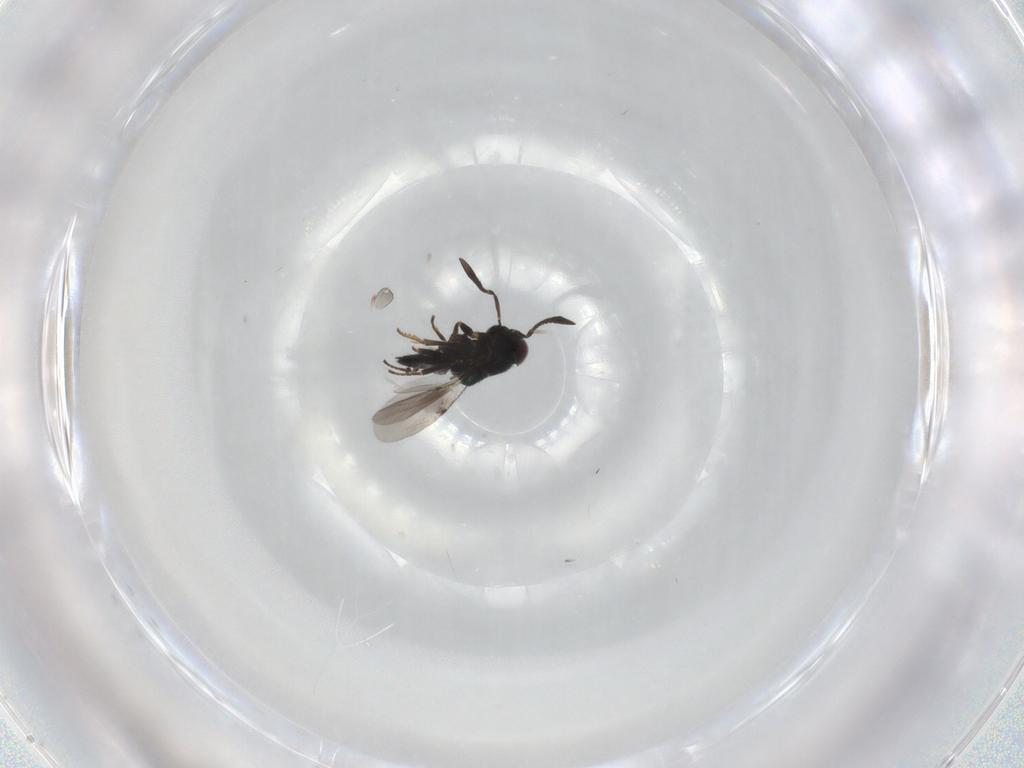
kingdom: Animalia
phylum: Arthropoda
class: Insecta
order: Hymenoptera
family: Encyrtidae
